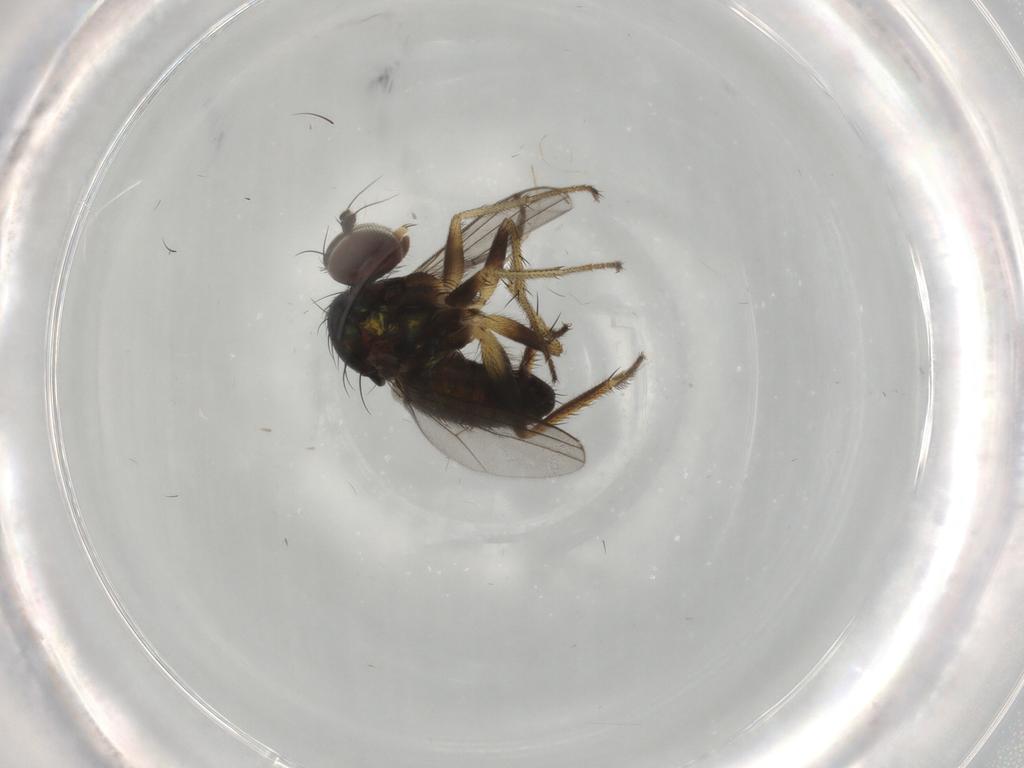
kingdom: Animalia
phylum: Arthropoda
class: Insecta
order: Diptera
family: Dolichopodidae
